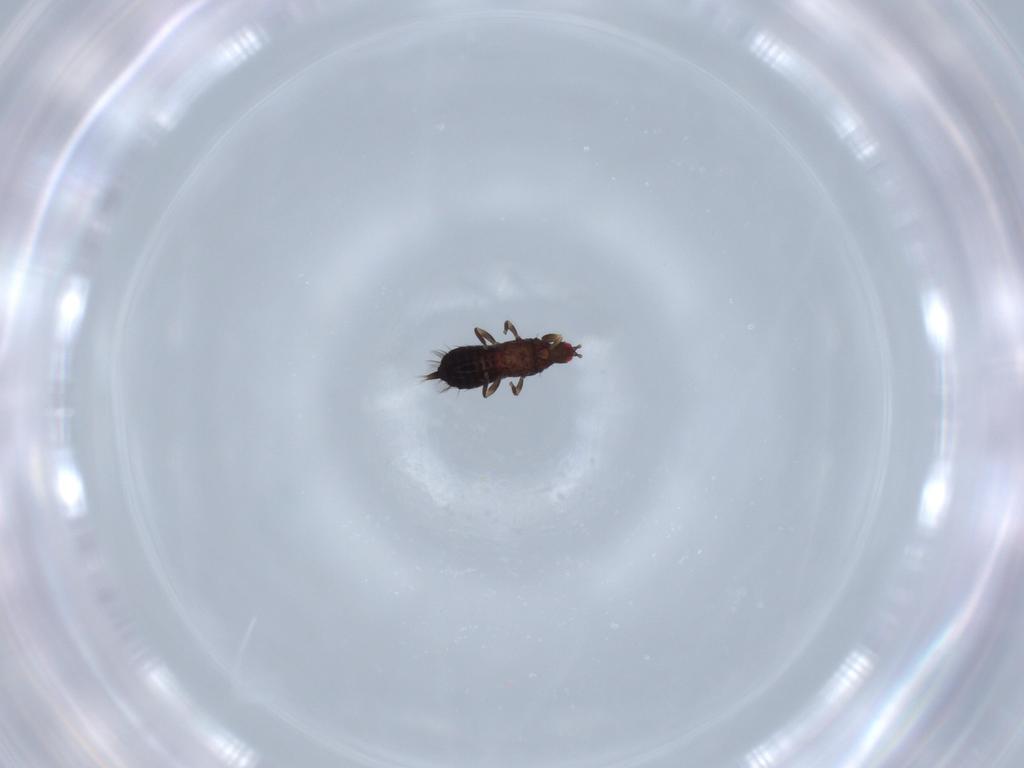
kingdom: Animalia
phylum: Arthropoda
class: Insecta
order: Thysanoptera
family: Phlaeothripidae
